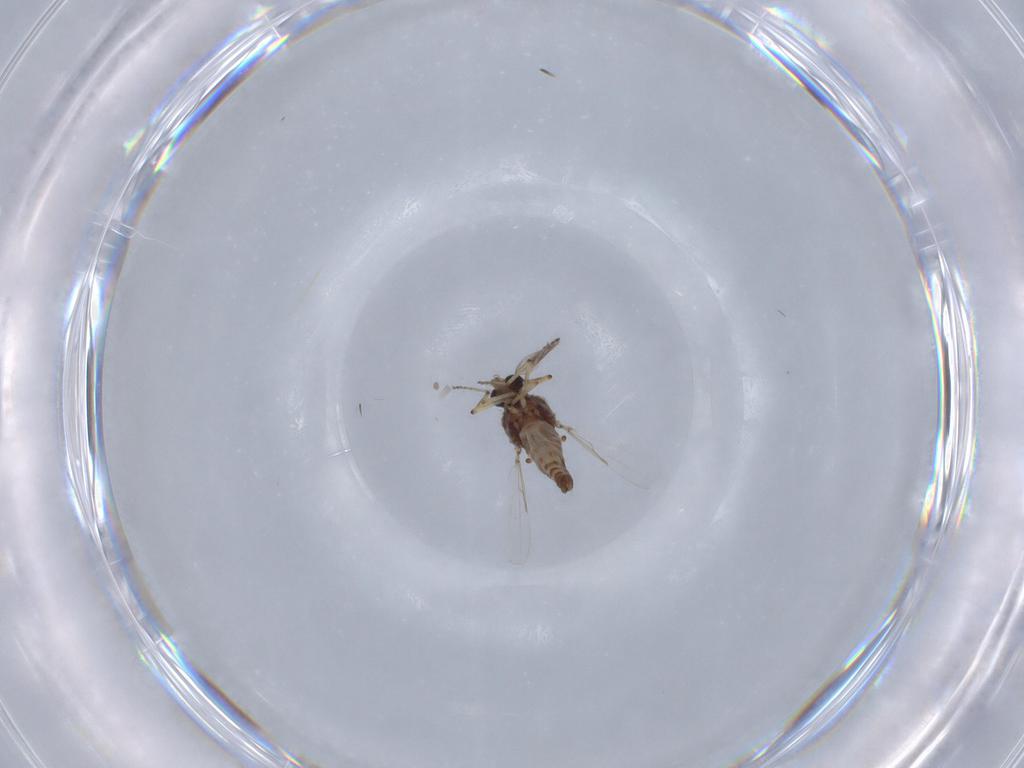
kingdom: Animalia
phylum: Arthropoda
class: Insecta
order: Diptera
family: Ceratopogonidae
